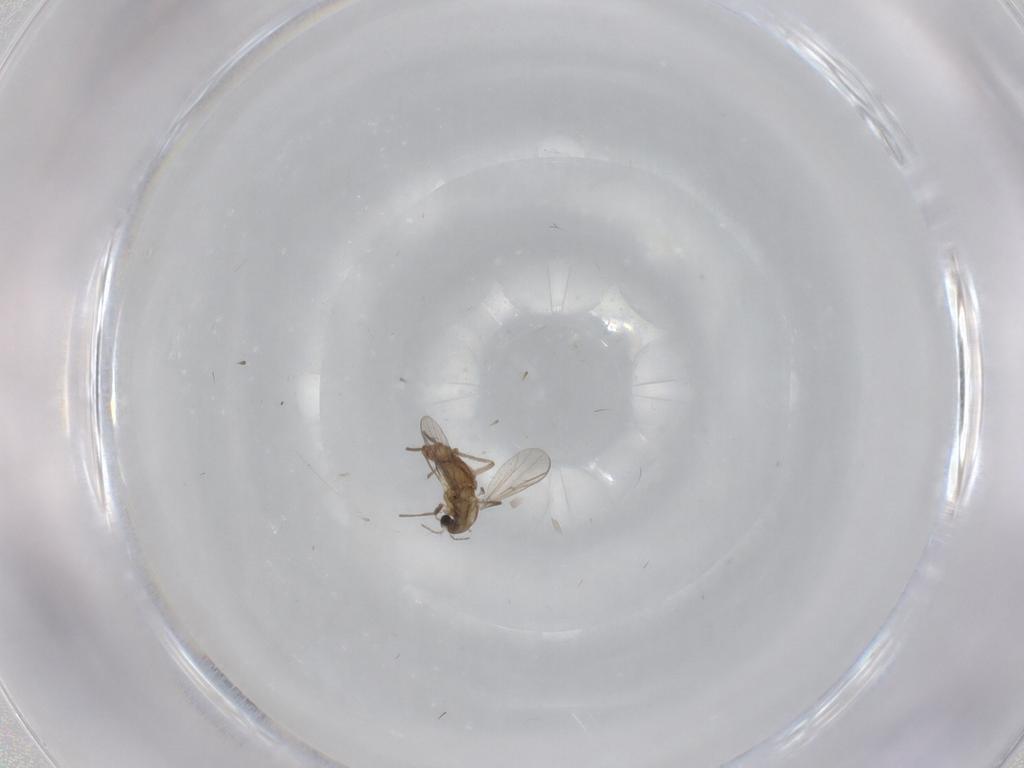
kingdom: Animalia
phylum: Arthropoda
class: Insecta
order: Diptera
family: Chironomidae
